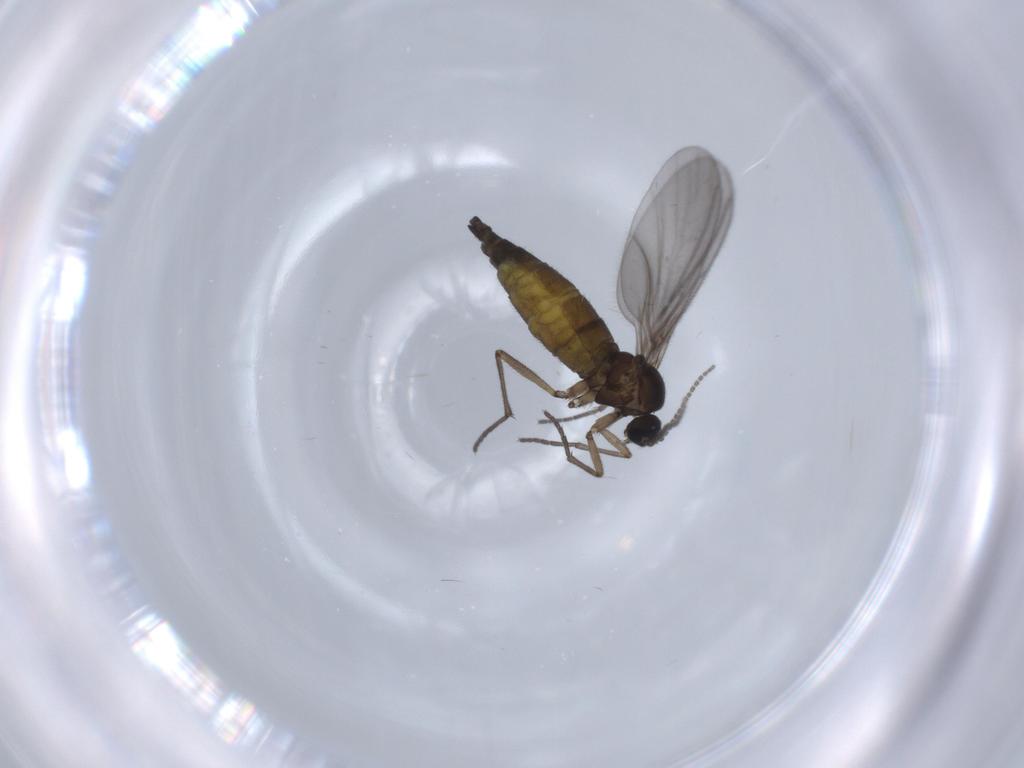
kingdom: Animalia
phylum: Arthropoda
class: Insecta
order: Diptera
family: Sciaridae
